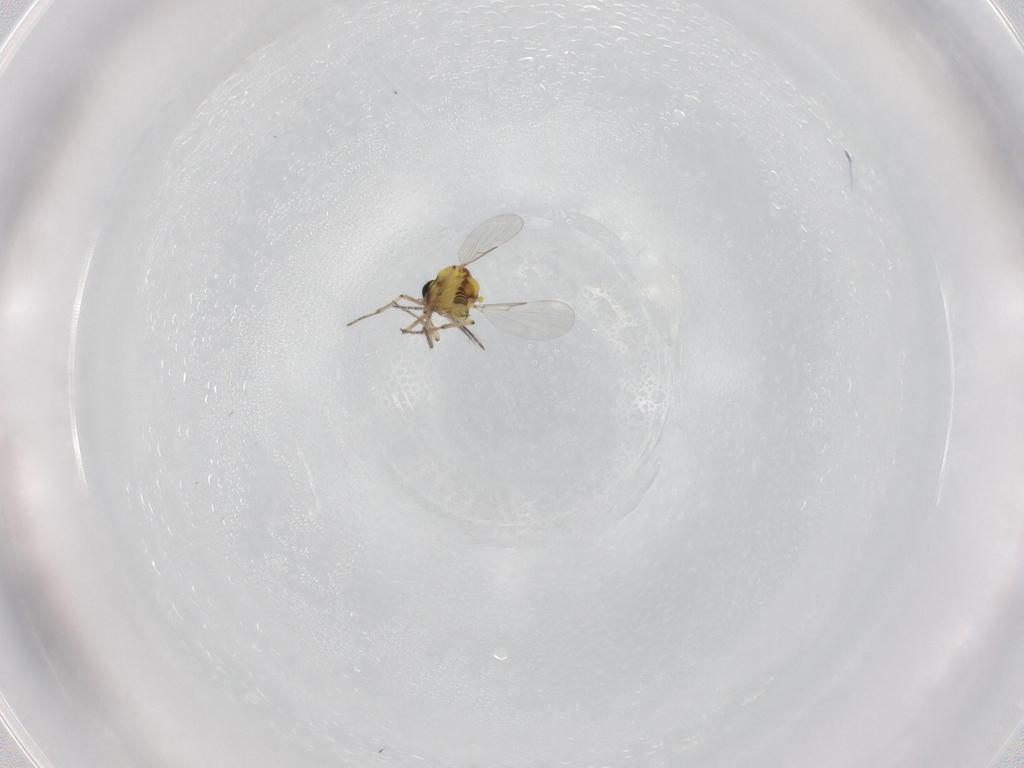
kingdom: Animalia
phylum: Arthropoda
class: Insecta
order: Diptera
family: Ceratopogonidae
